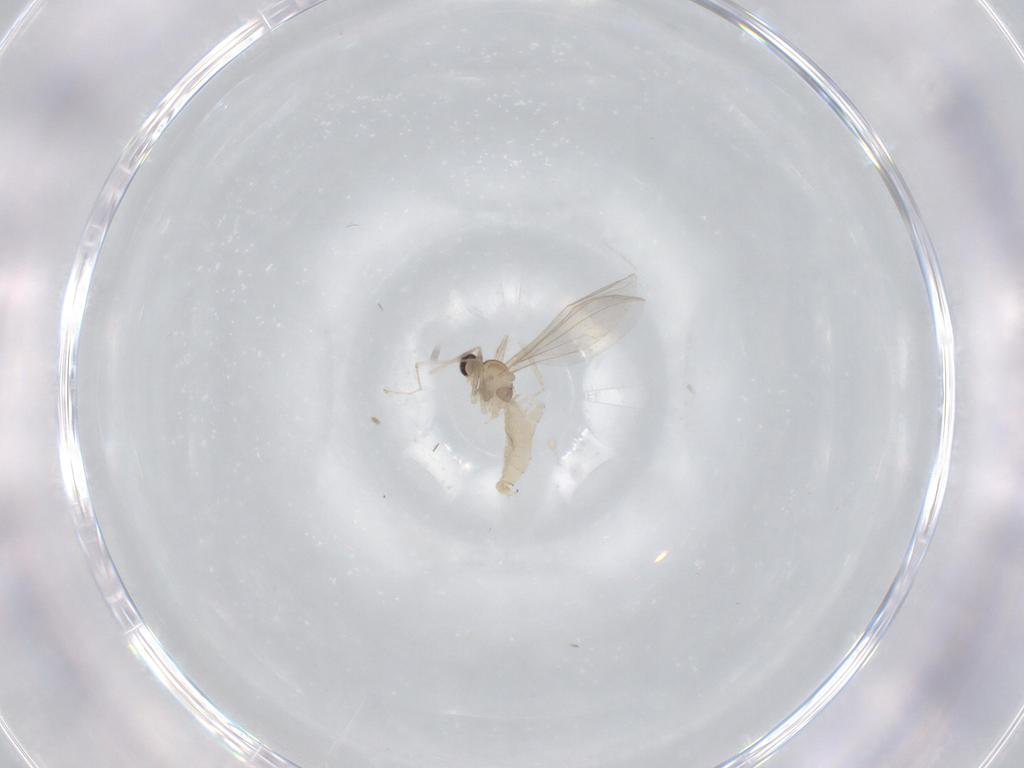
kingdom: Animalia
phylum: Arthropoda
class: Insecta
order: Diptera
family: Cecidomyiidae
